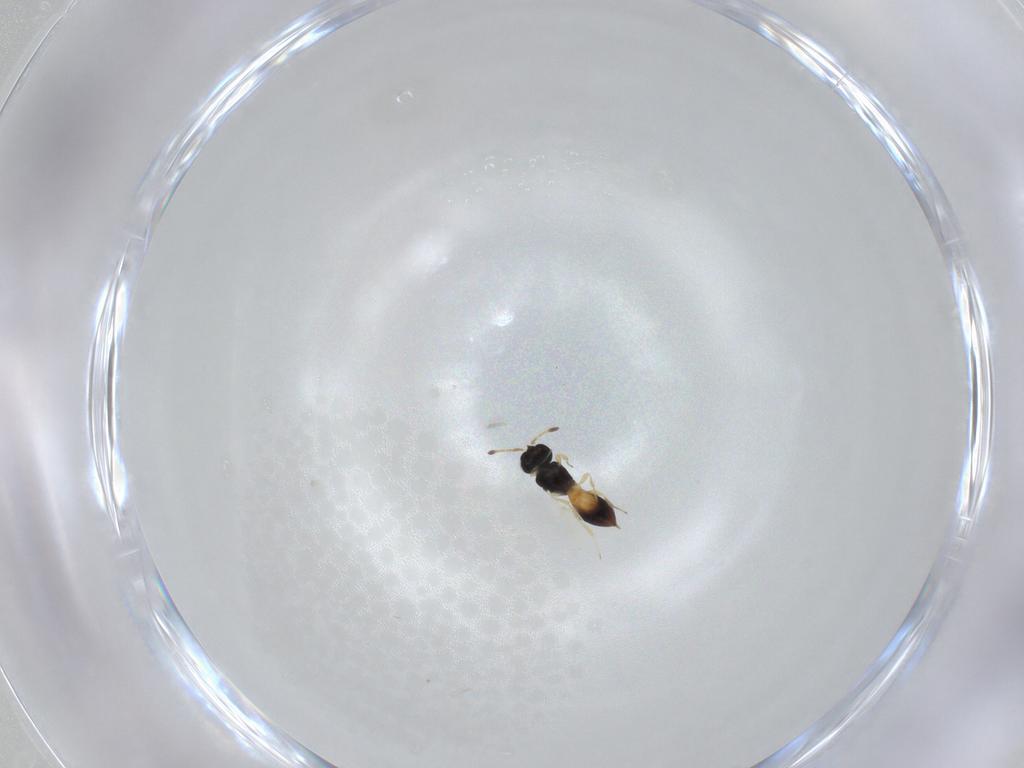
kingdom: Animalia
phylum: Arthropoda
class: Insecta
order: Hymenoptera
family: Scelionidae
